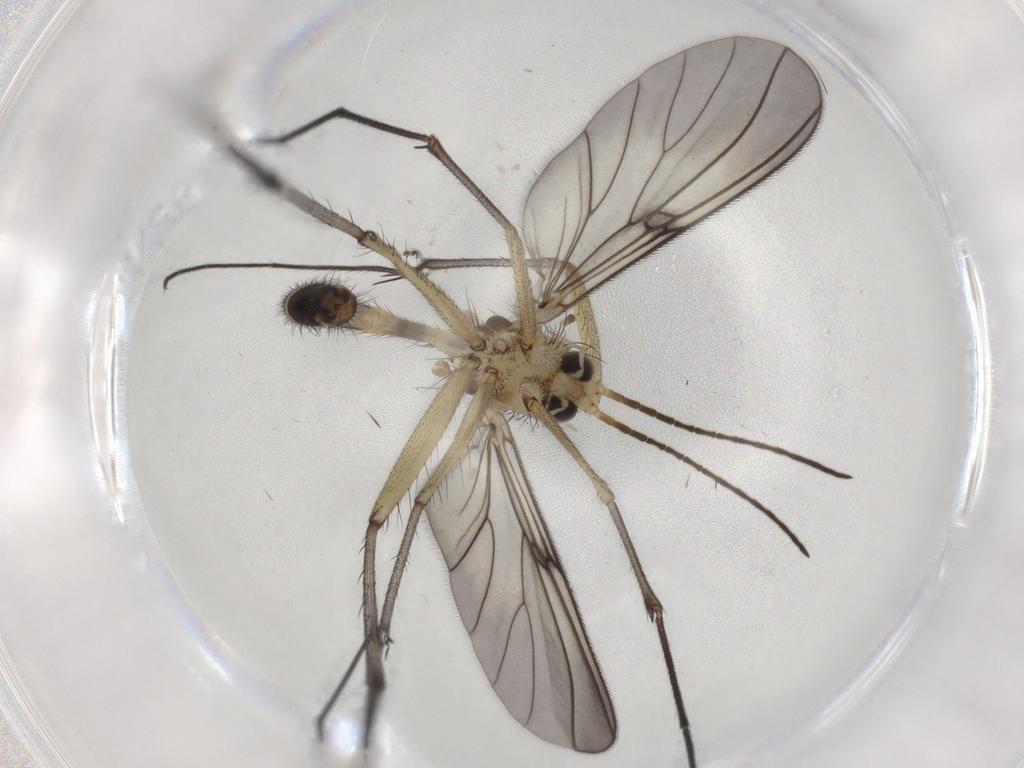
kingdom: Animalia
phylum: Arthropoda
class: Insecta
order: Diptera
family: Mycetophilidae
